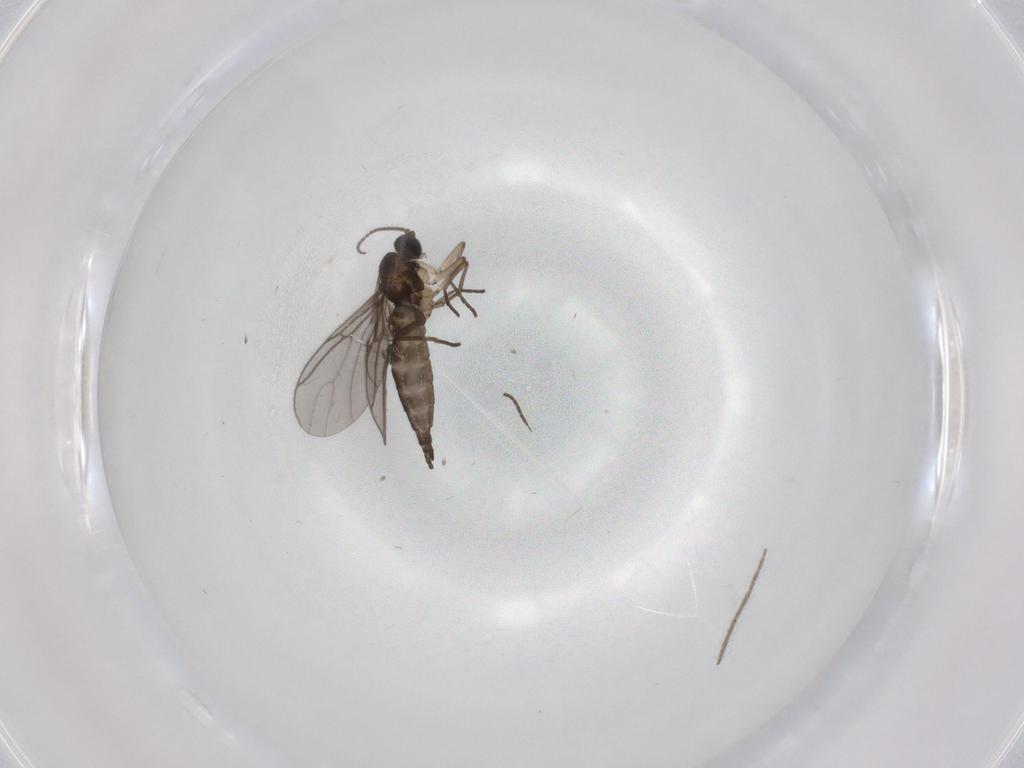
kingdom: Animalia
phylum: Arthropoda
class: Insecta
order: Diptera
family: Sciaridae
